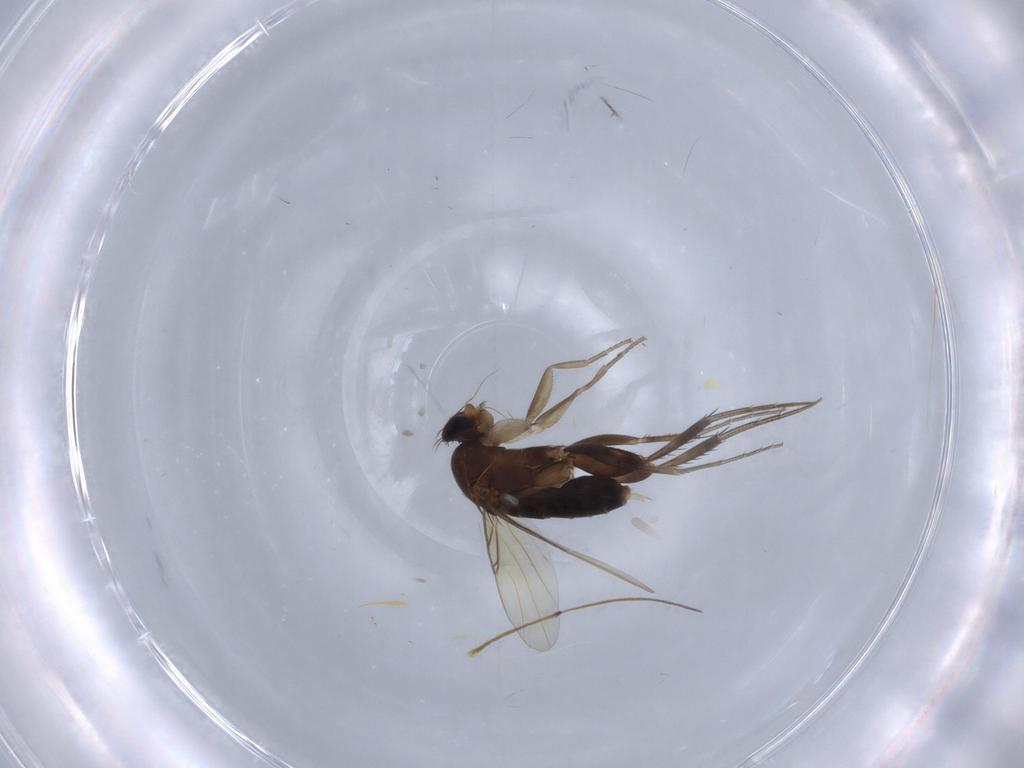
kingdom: Animalia
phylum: Arthropoda
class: Insecta
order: Diptera
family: Phoridae
